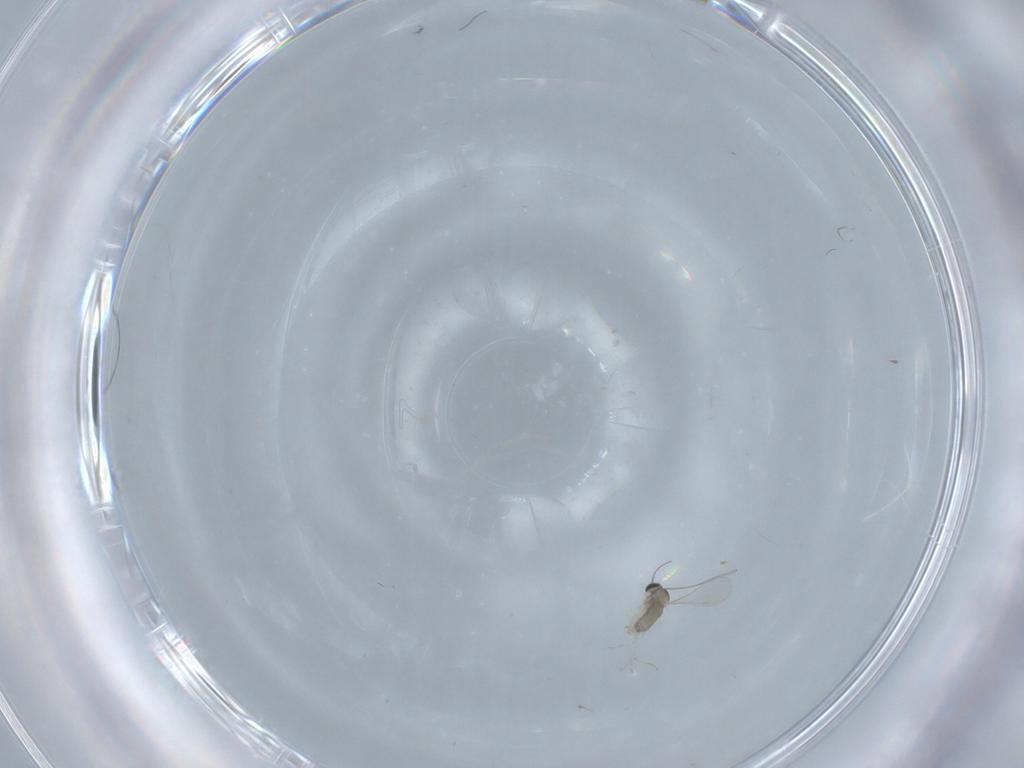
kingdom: Animalia
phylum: Arthropoda
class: Insecta
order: Diptera
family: Cecidomyiidae
